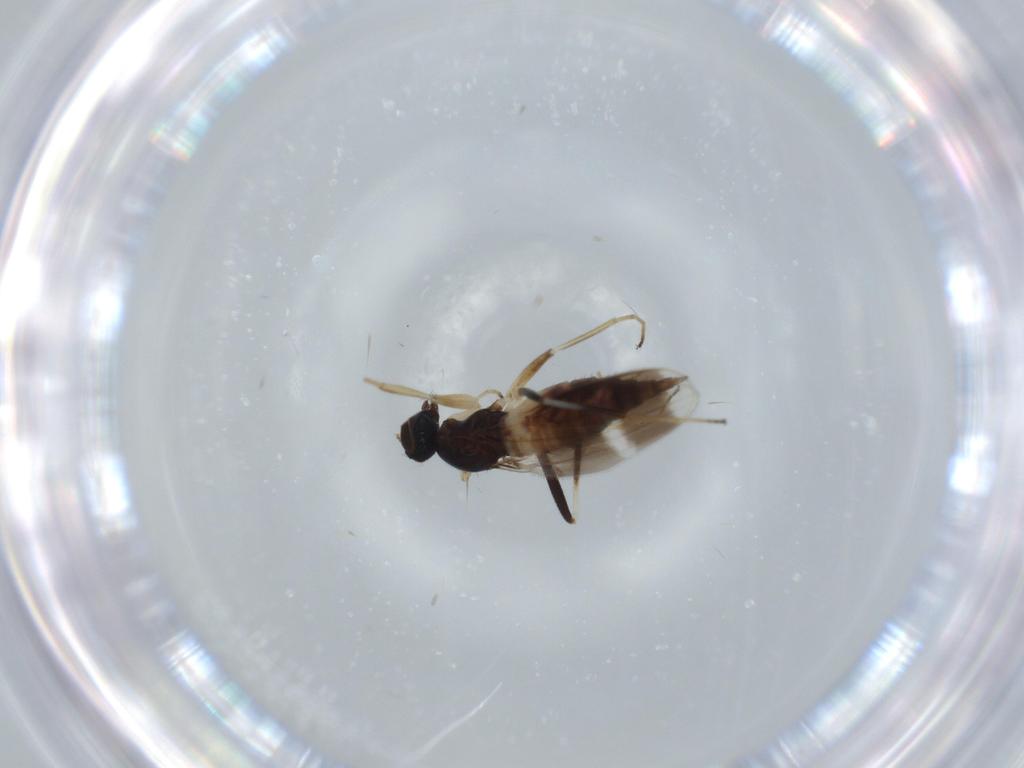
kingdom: Animalia
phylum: Arthropoda
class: Insecta
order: Diptera
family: Hybotidae
